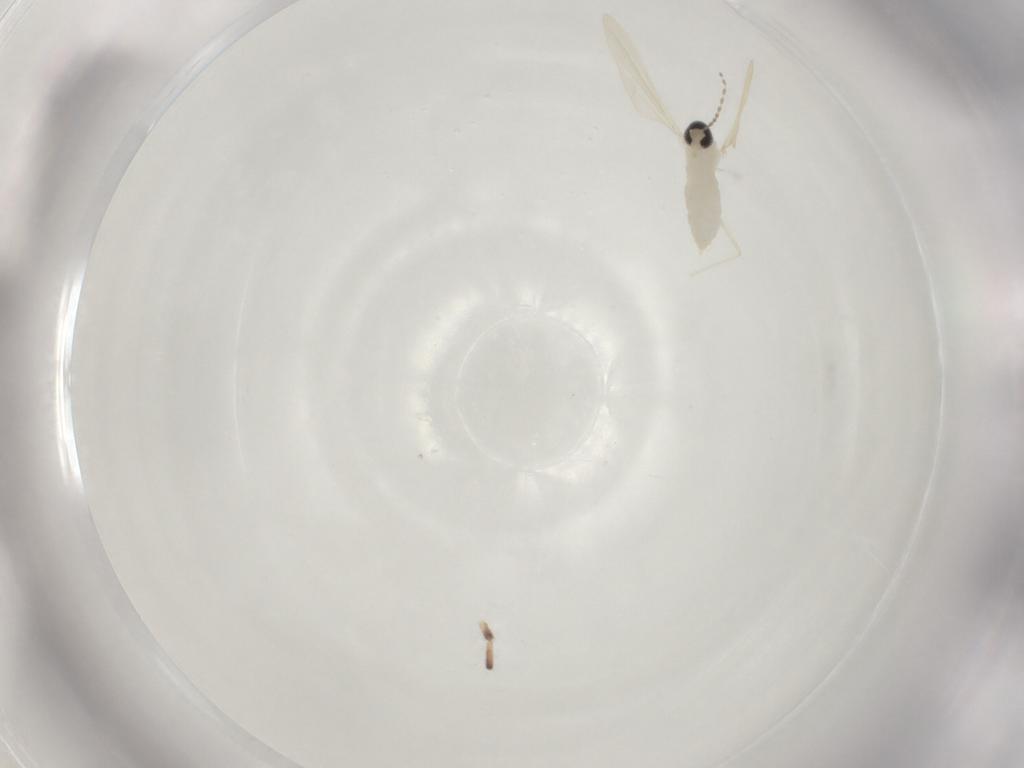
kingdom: Animalia
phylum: Arthropoda
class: Insecta
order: Diptera
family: Cecidomyiidae
